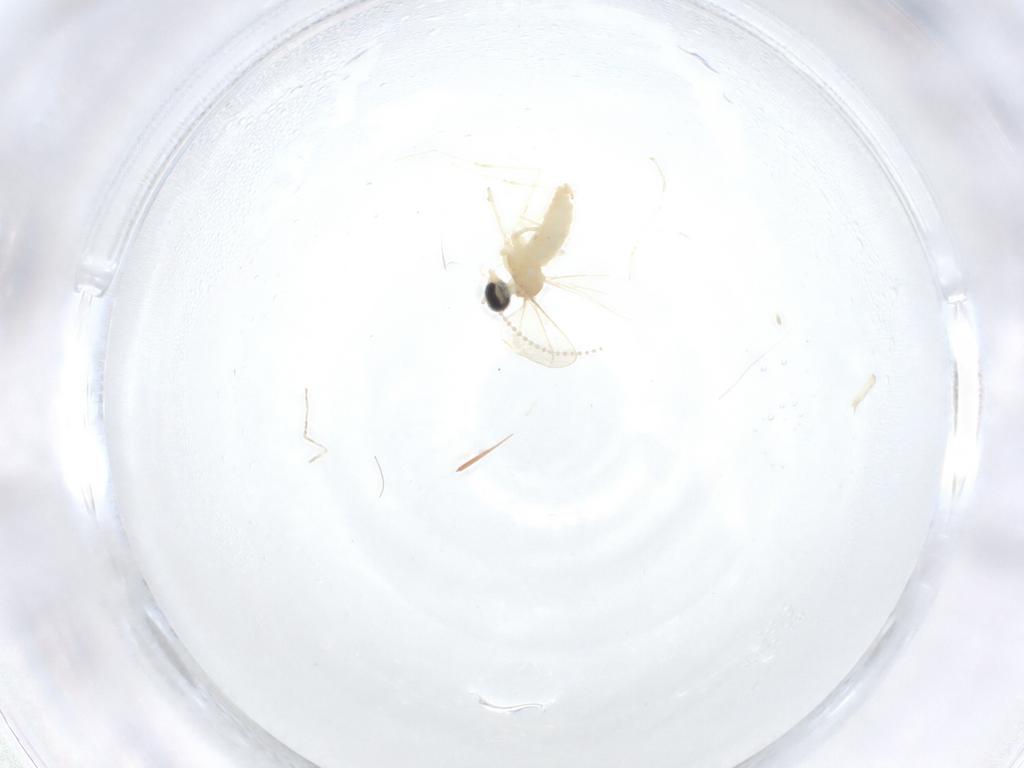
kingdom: Animalia
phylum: Arthropoda
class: Insecta
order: Diptera
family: Cecidomyiidae
